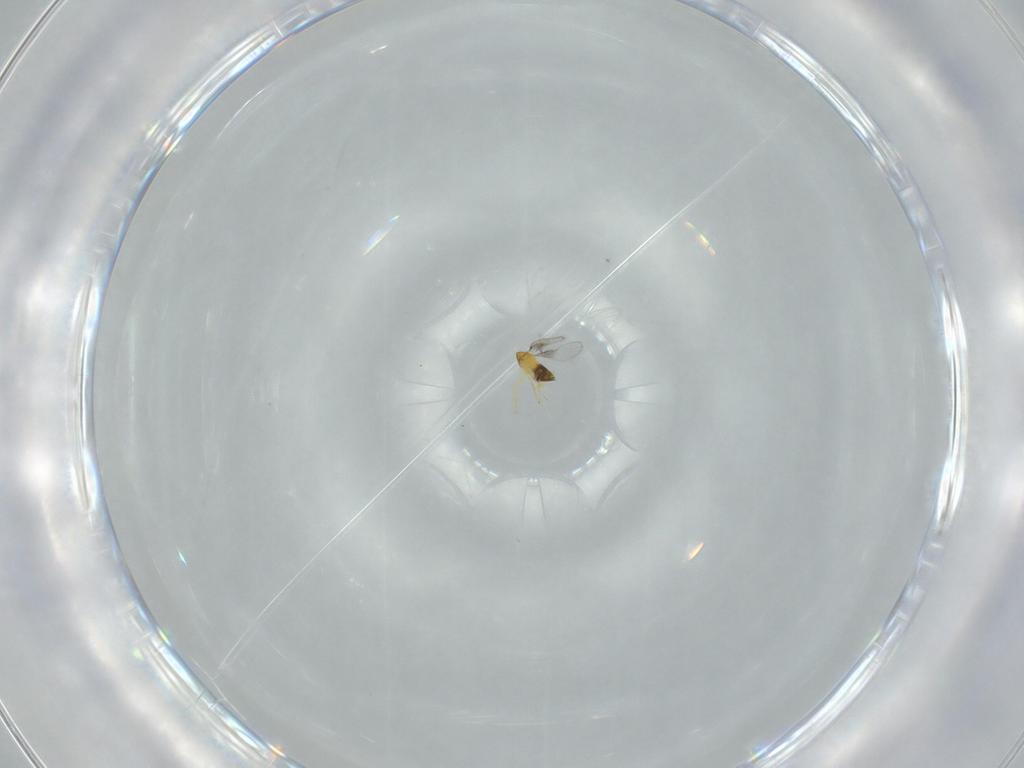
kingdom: Animalia
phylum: Arthropoda
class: Insecta
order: Hymenoptera
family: Trichogrammatidae
